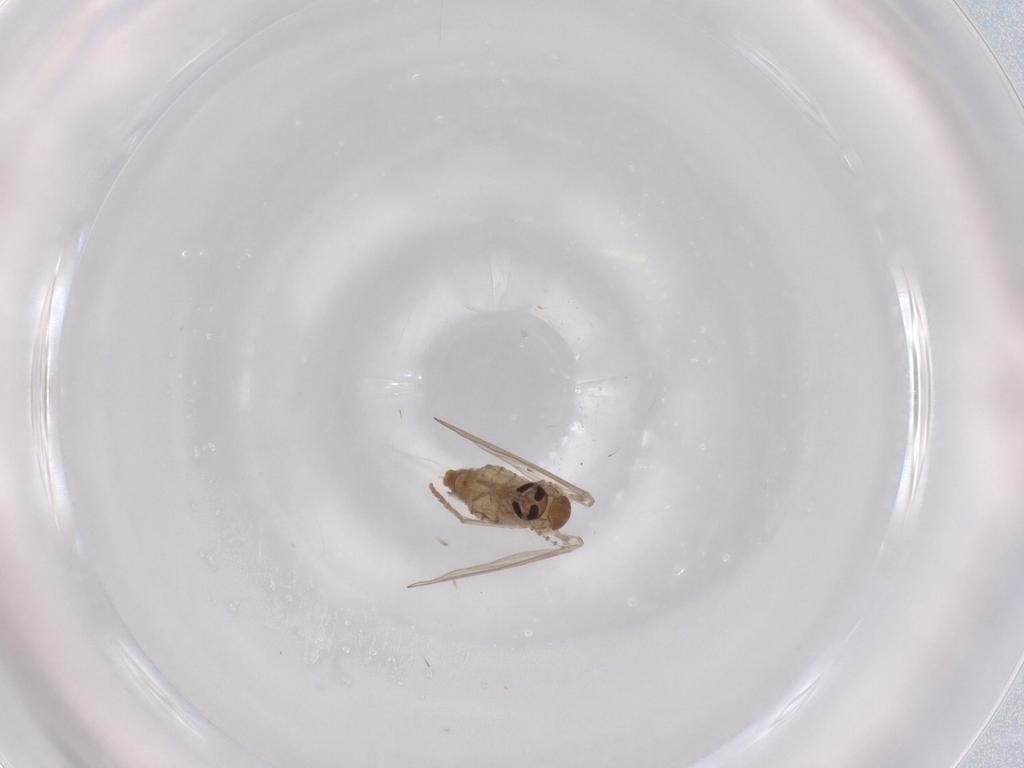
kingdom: Animalia
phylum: Arthropoda
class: Insecta
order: Diptera
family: Psychodidae
